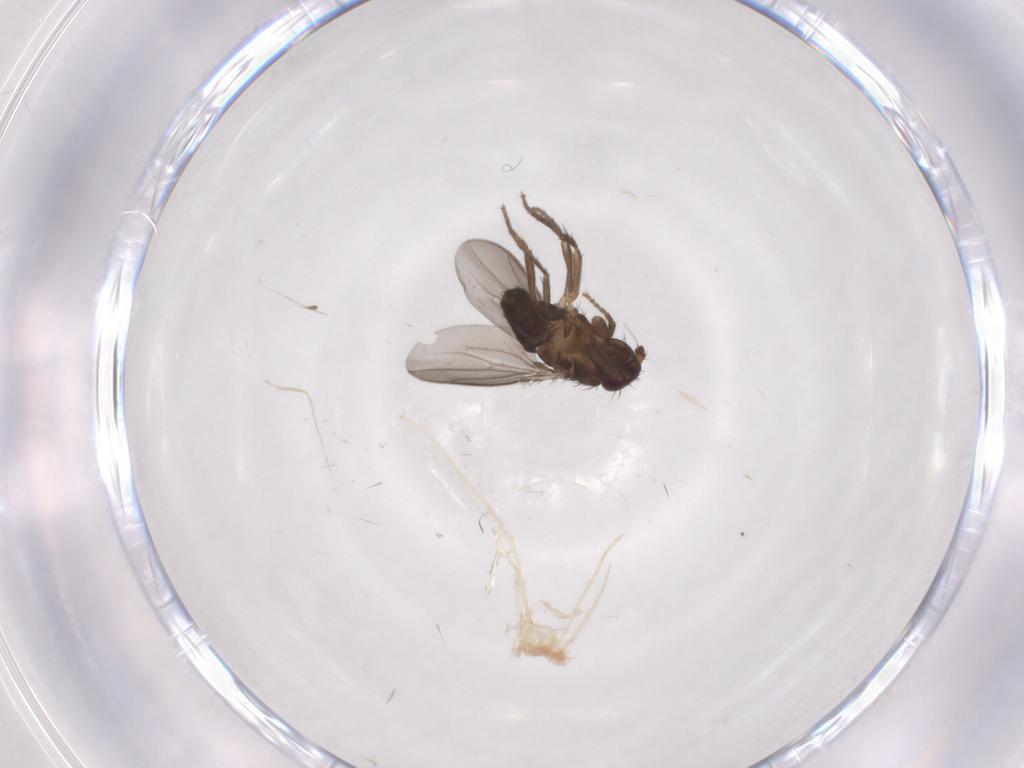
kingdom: Animalia
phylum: Arthropoda
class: Insecta
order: Diptera
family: Sphaeroceridae
